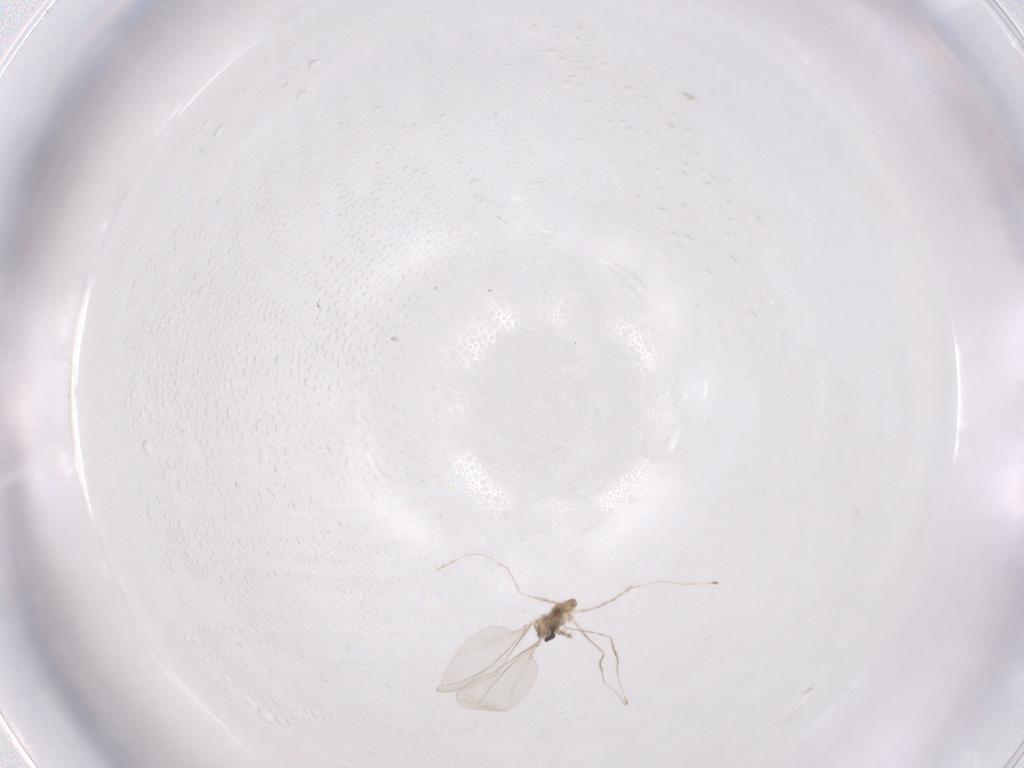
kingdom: Animalia
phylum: Arthropoda
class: Insecta
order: Diptera
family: Cecidomyiidae
